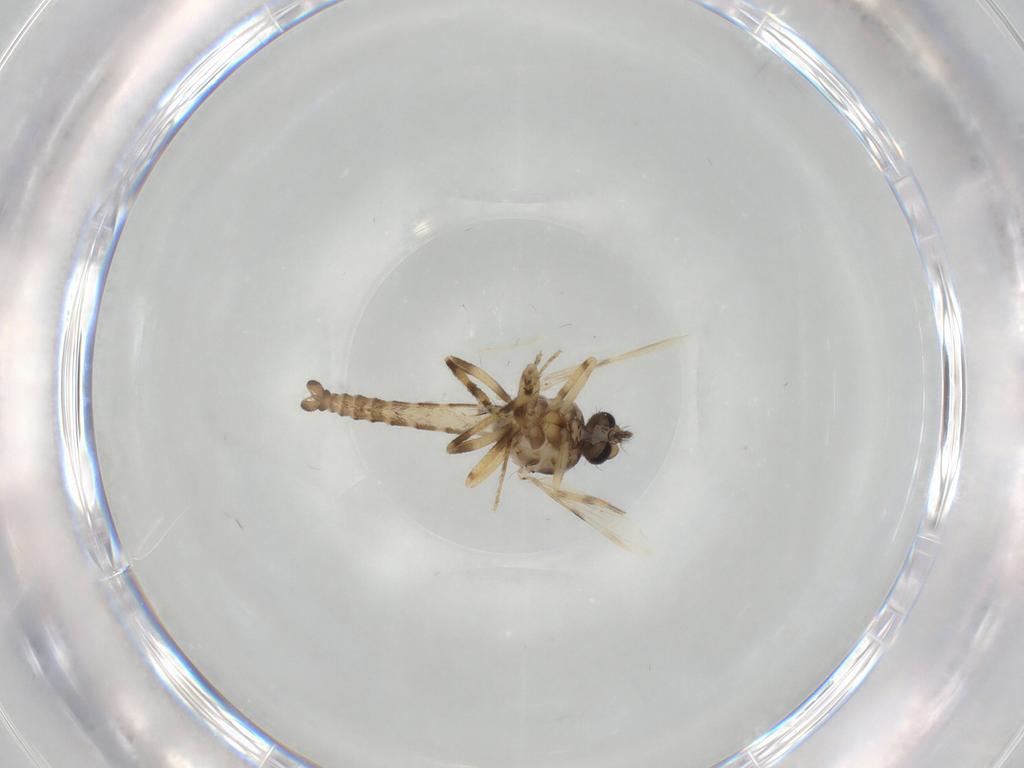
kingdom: Animalia
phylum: Arthropoda
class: Insecta
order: Diptera
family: Ceratopogonidae
